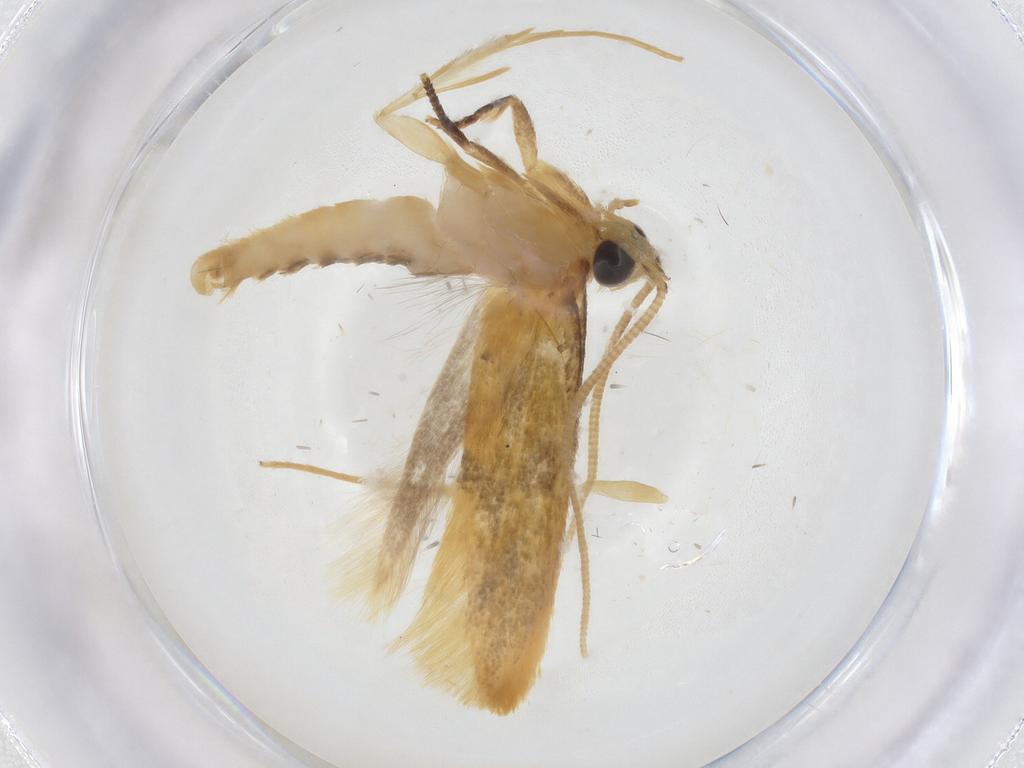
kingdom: Animalia
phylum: Arthropoda
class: Insecta
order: Lepidoptera
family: Tineidae
